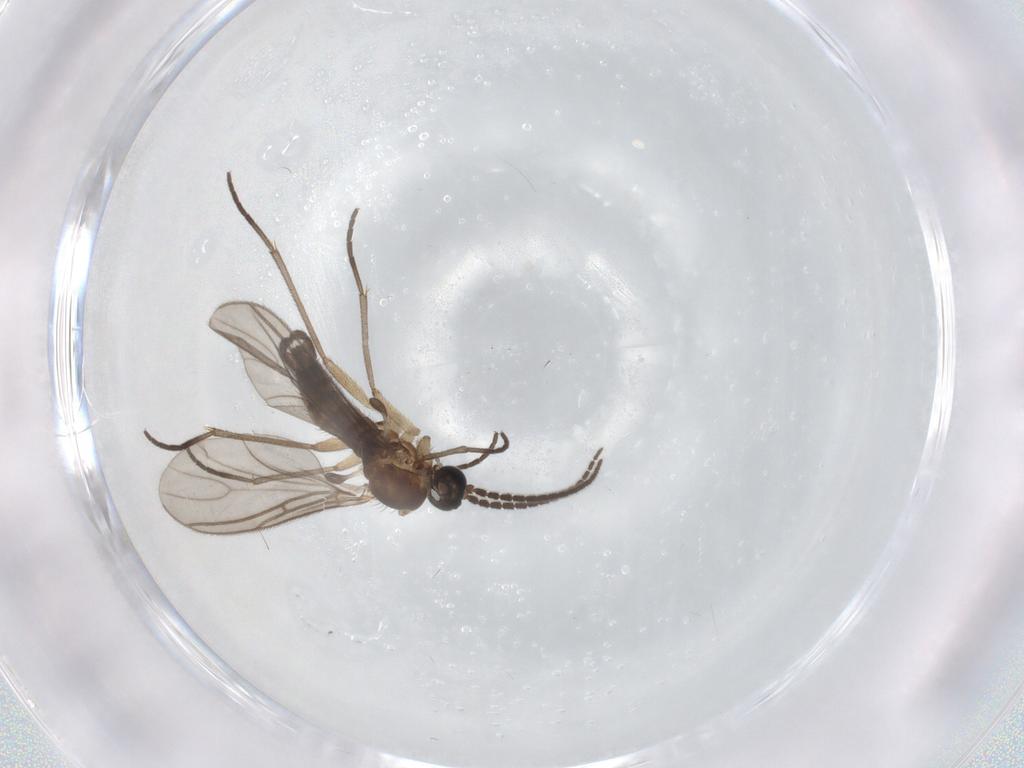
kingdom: Animalia
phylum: Arthropoda
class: Insecta
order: Diptera
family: Sciaridae
